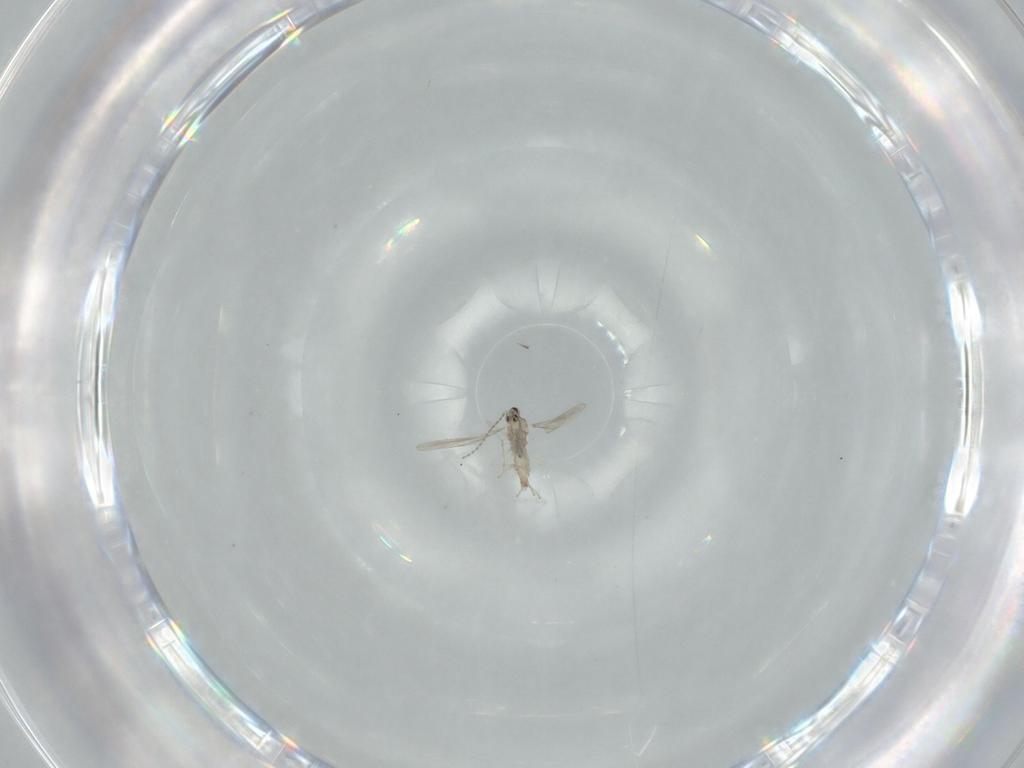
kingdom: Animalia
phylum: Arthropoda
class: Insecta
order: Diptera
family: Cecidomyiidae
